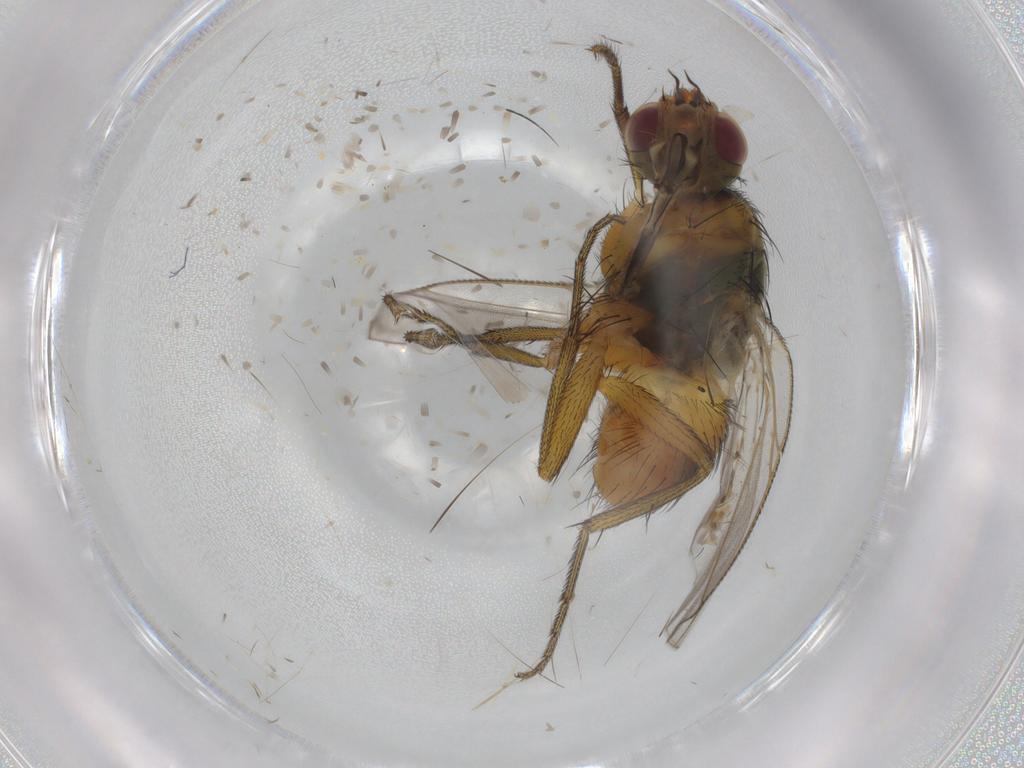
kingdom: Animalia
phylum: Arthropoda
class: Insecta
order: Diptera
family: Muscidae
